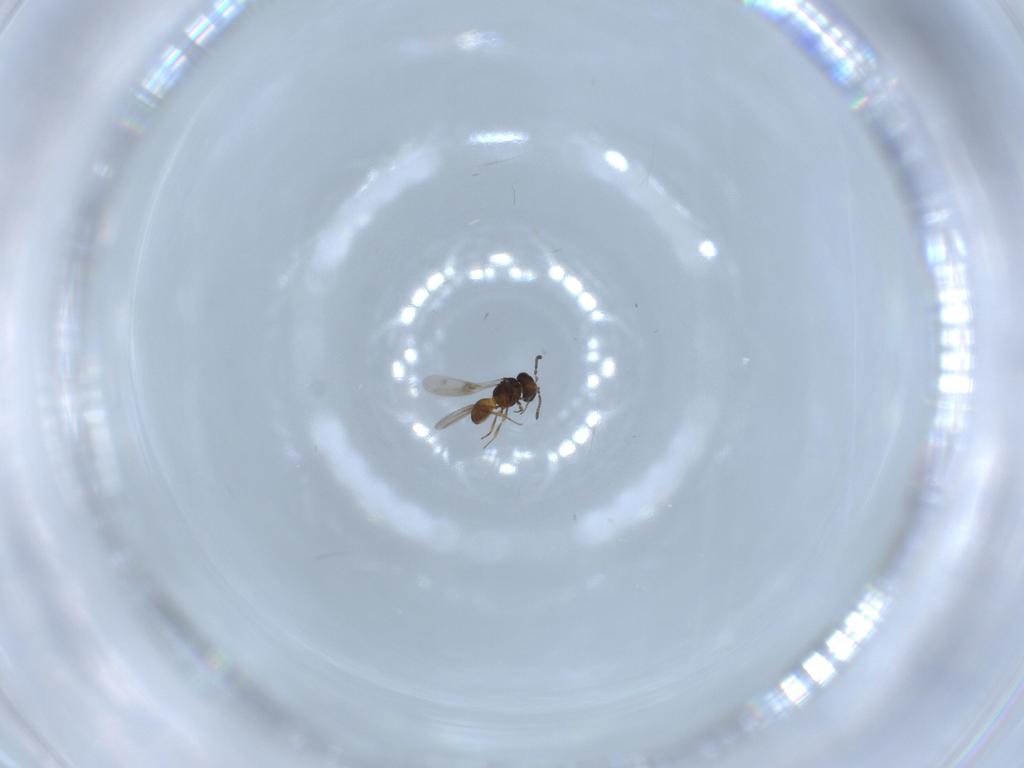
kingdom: Animalia
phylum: Arthropoda
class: Insecta
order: Hymenoptera
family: Scelionidae
